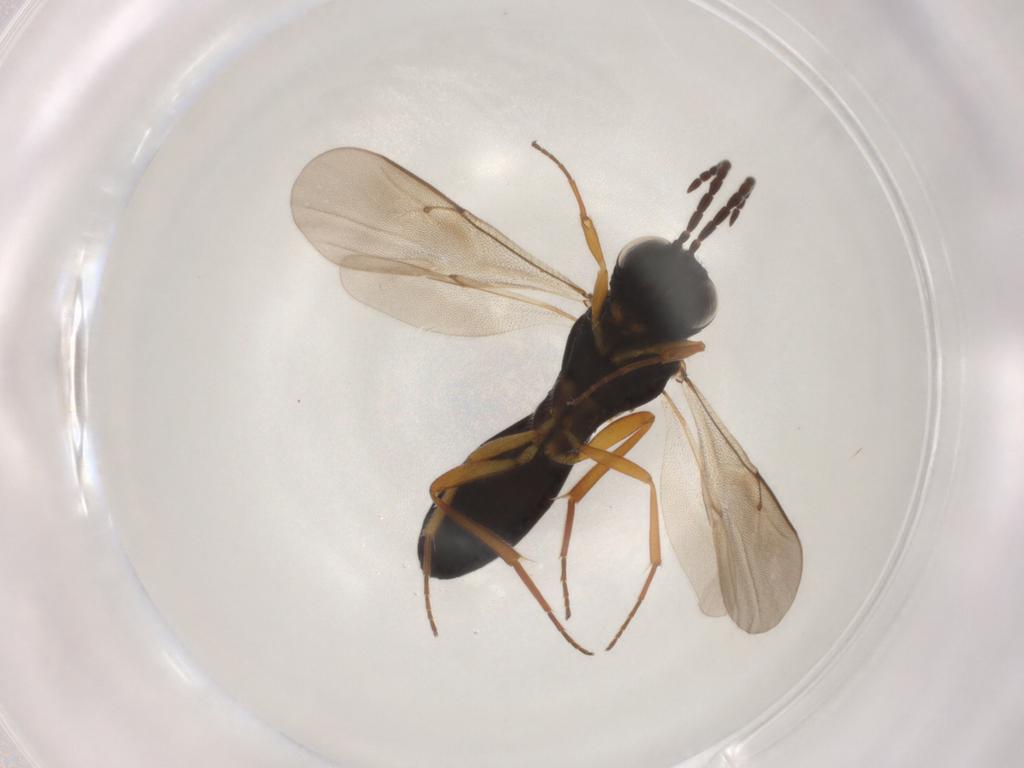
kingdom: Animalia
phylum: Arthropoda
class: Insecta
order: Hymenoptera
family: Scelionidae
